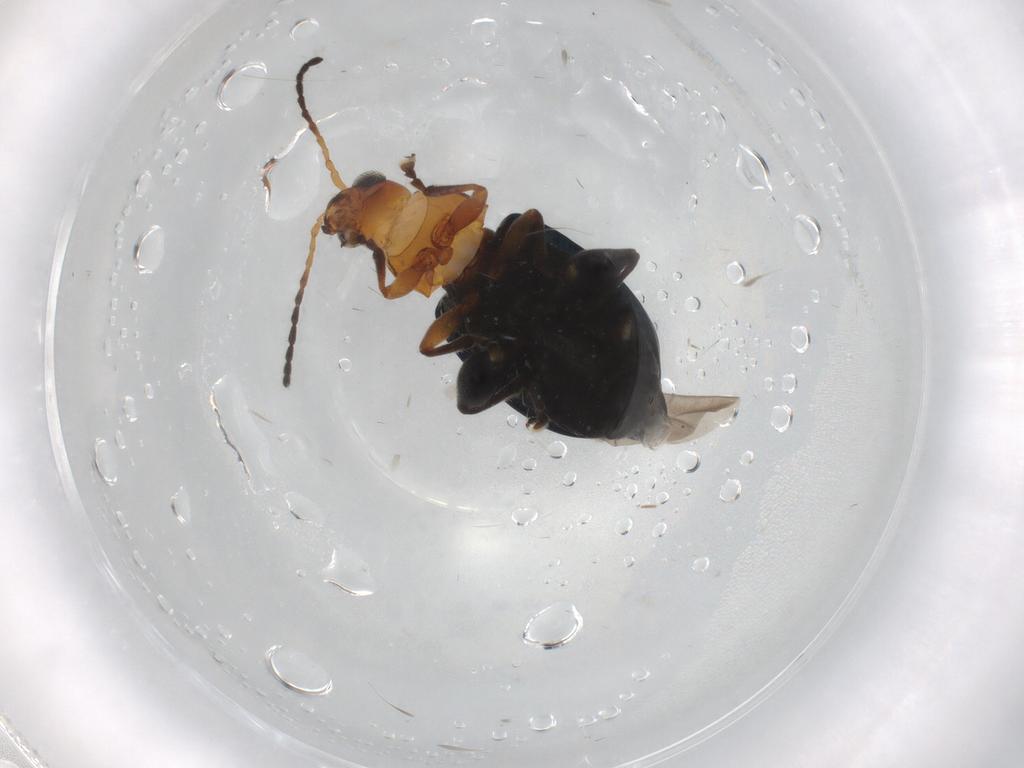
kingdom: Animalia
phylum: Arthropoda
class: Insecta
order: Coleoptera
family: Chrysomelidae
